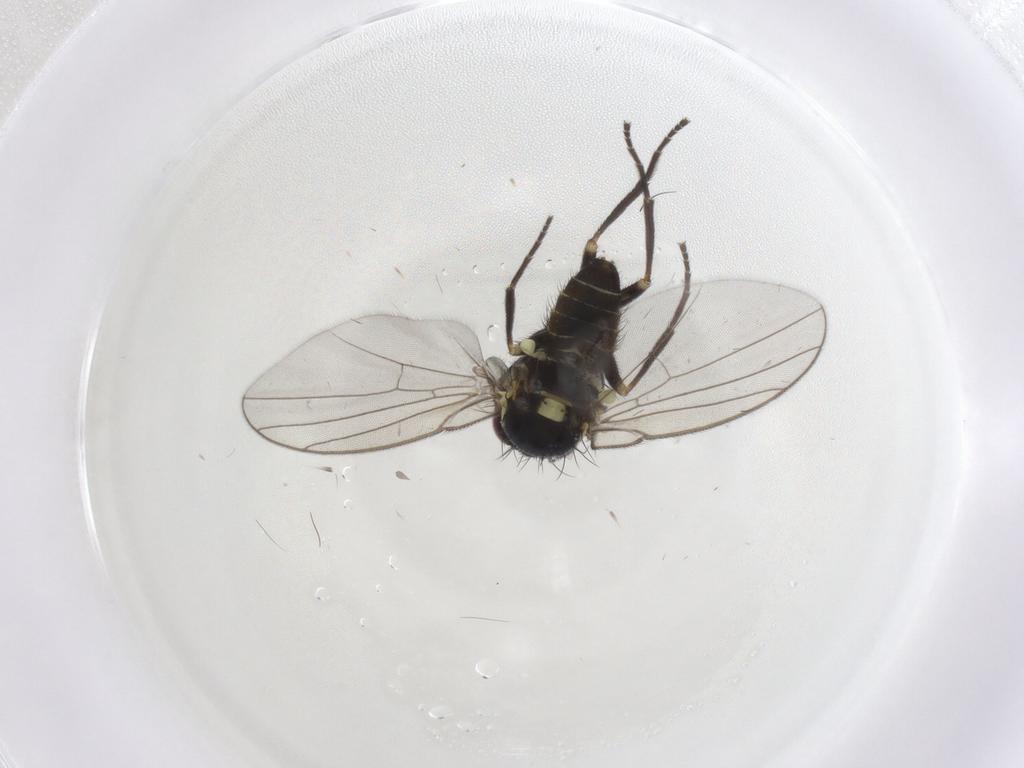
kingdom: Animalia
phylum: Arthropoda
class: Insecta
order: Diptera
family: Agromyzidae
